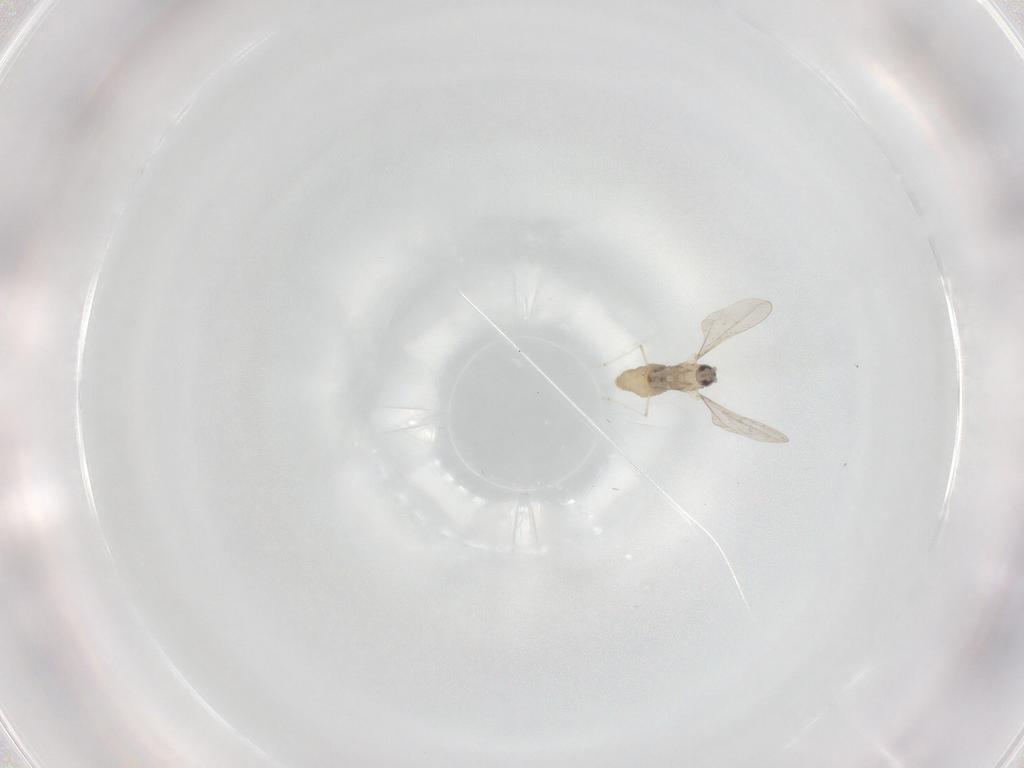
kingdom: Animalia
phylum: Arthropoda
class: Insecta
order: Diptera
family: Cecidomyiidae
